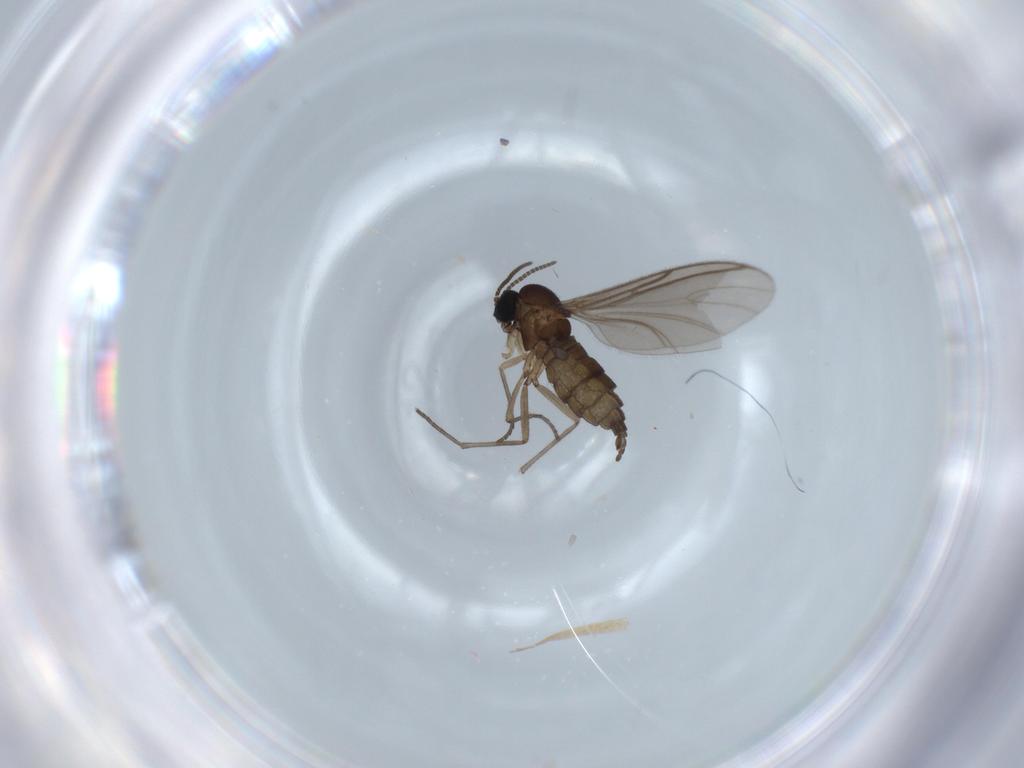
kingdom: Animalia
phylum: Arthropoda
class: Insecta
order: Diptera
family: Sciaridae
